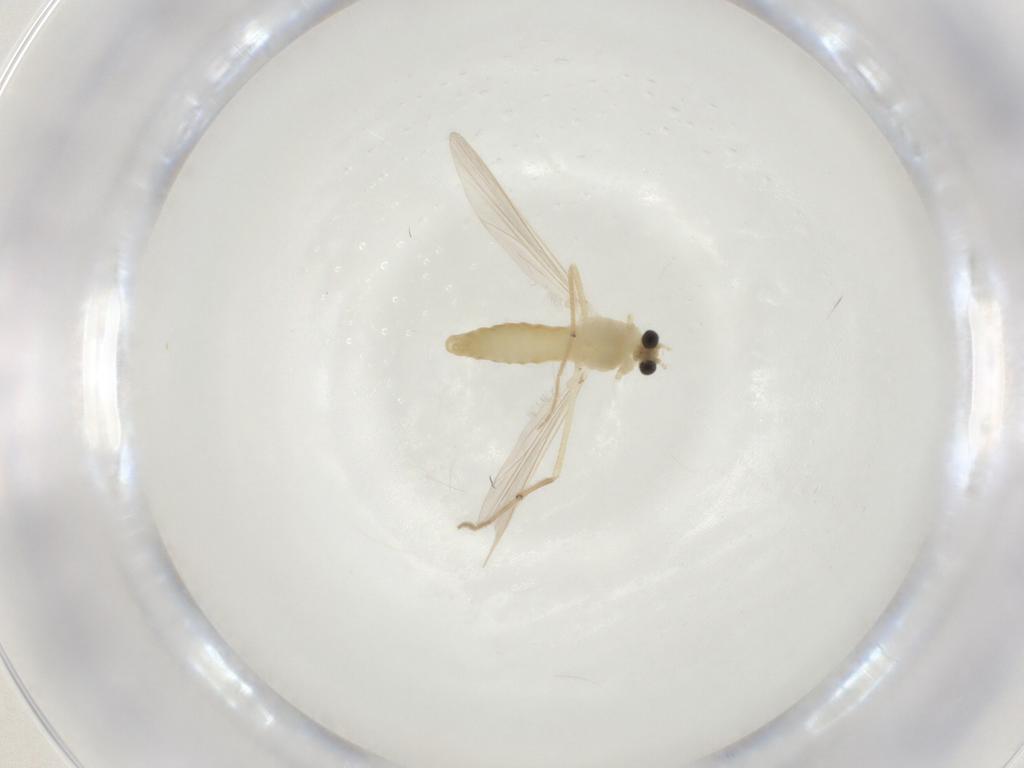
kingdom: Animalia
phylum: Arthropoda
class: Insecta
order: Diptera
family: Chironomidae
